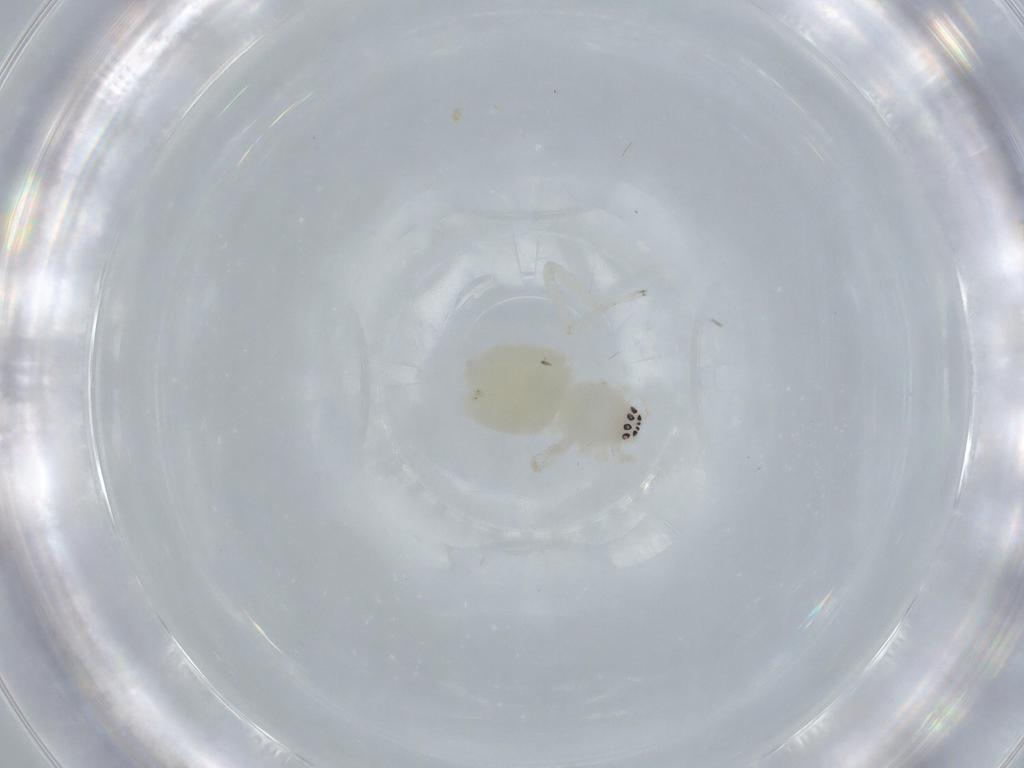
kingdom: Animalia
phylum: Arthropoda
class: Arachnida
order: Araneae
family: Anyphaenidae
